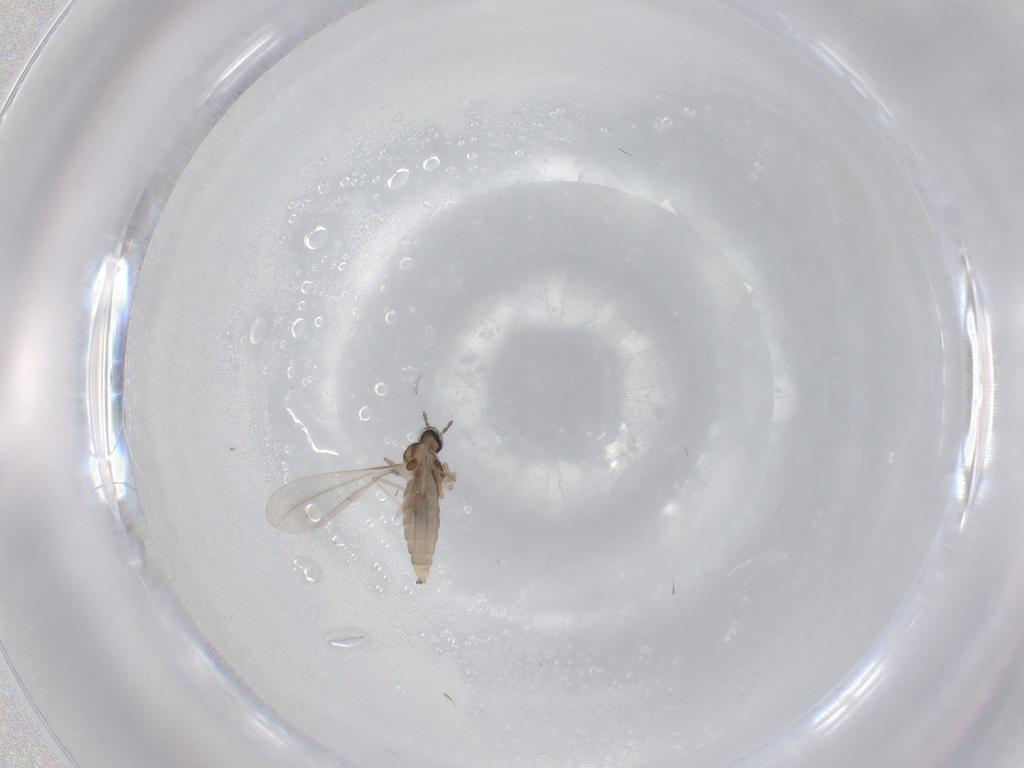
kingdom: Animalia
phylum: Arthropoda
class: Insecta
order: Diptera
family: Cecidomyiidae
